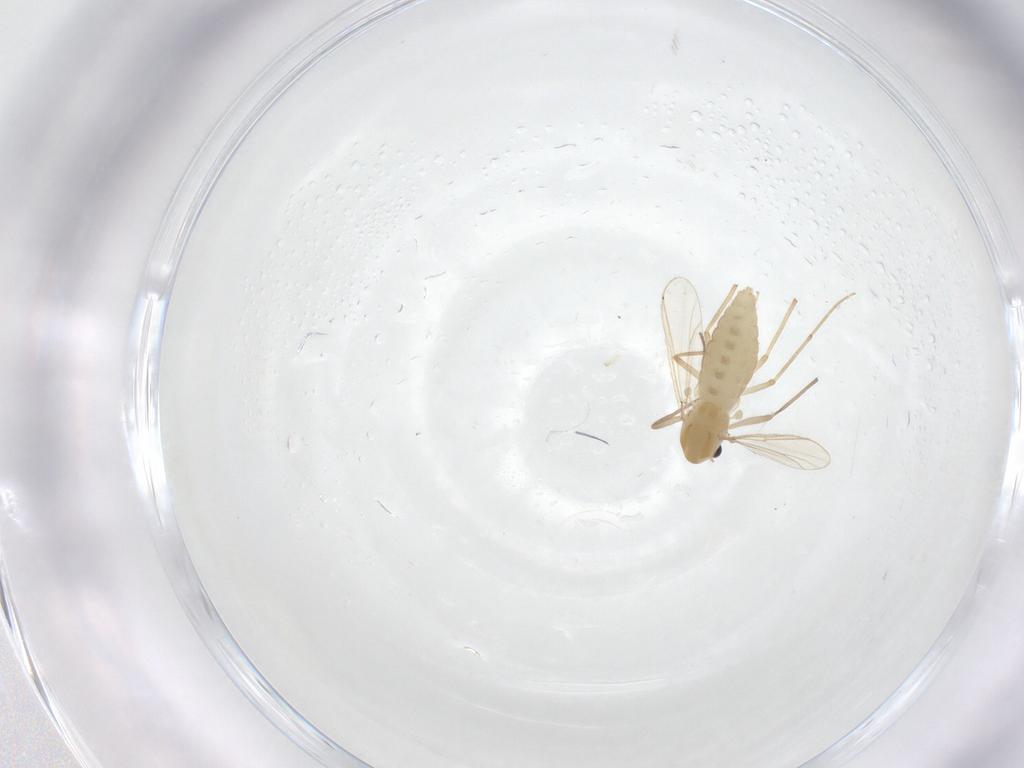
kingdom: Animalia
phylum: Arthropoda
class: Insecta
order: Diptera
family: Chironomidae
